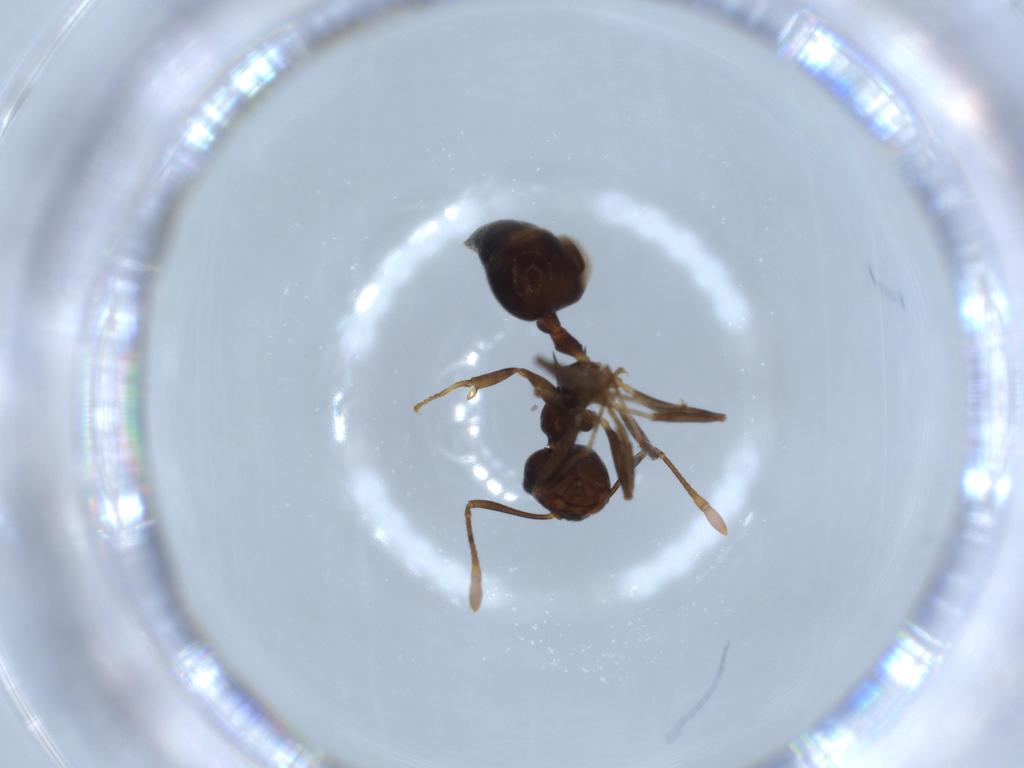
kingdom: Animalia
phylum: Arthropoda
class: Insecta
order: Hymenoptera
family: Formicidae
